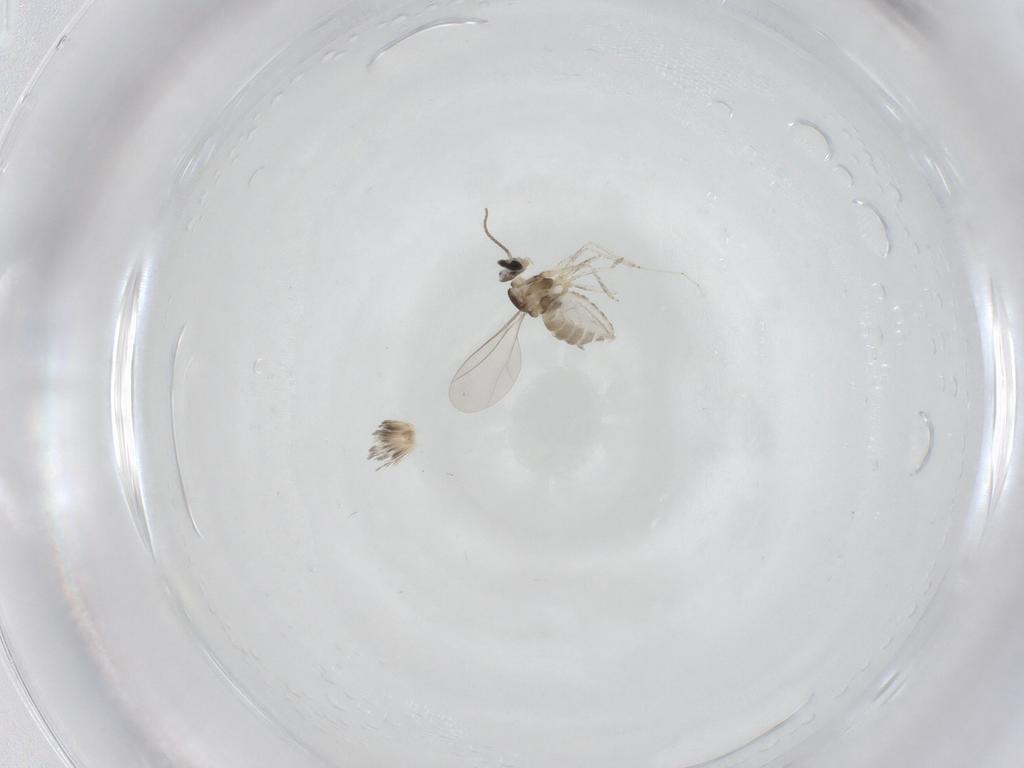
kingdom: Animalia
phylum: Arthropoda
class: Insecta
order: Diptera
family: Cecidomyiidae
